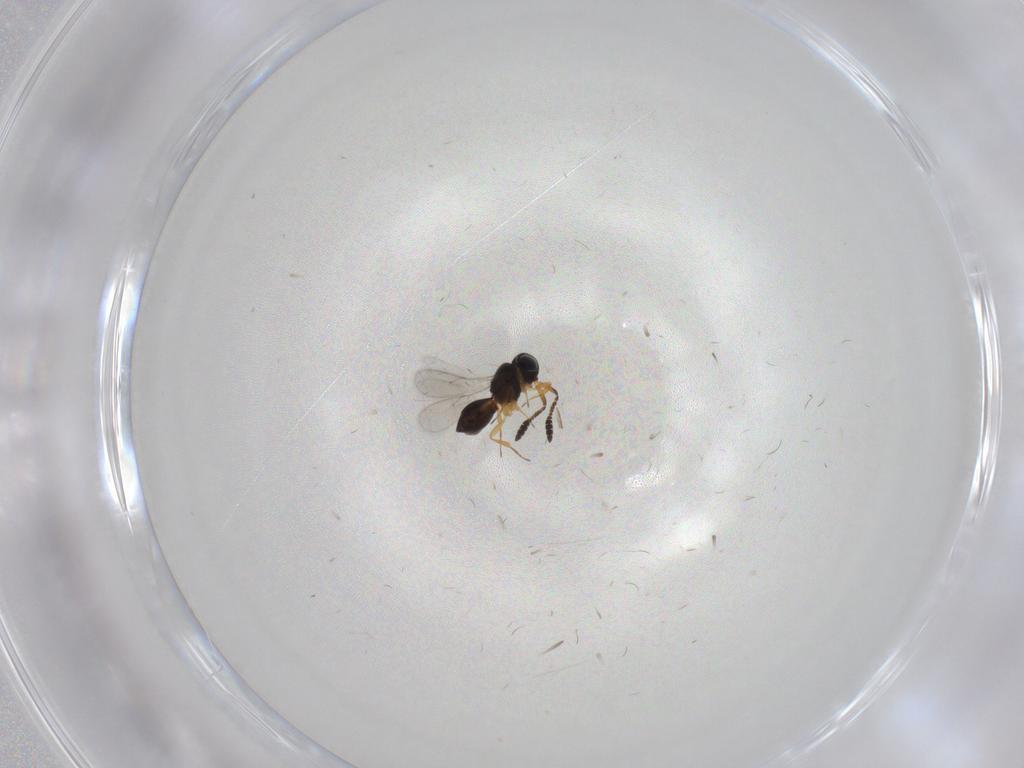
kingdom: Animalia
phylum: Arthropoda
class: Insecta
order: Hymenoptera
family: Scelionidae
